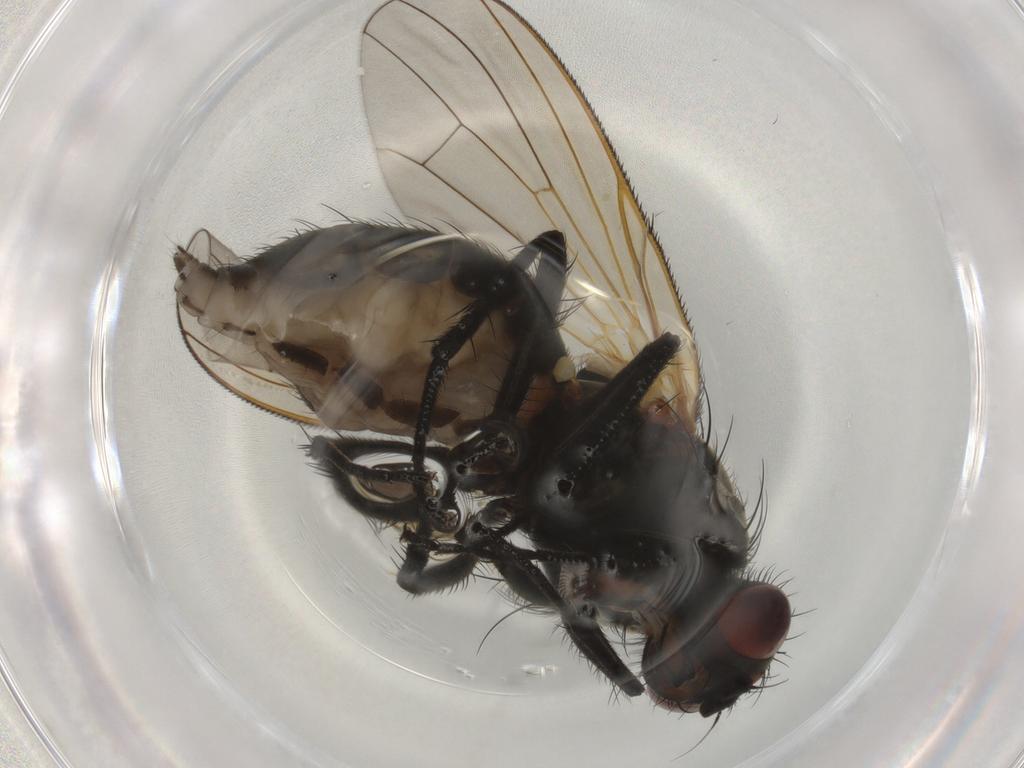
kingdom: Animalia
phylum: Arthropoda
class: Insecta
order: Diptera
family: Anthomyiidae
